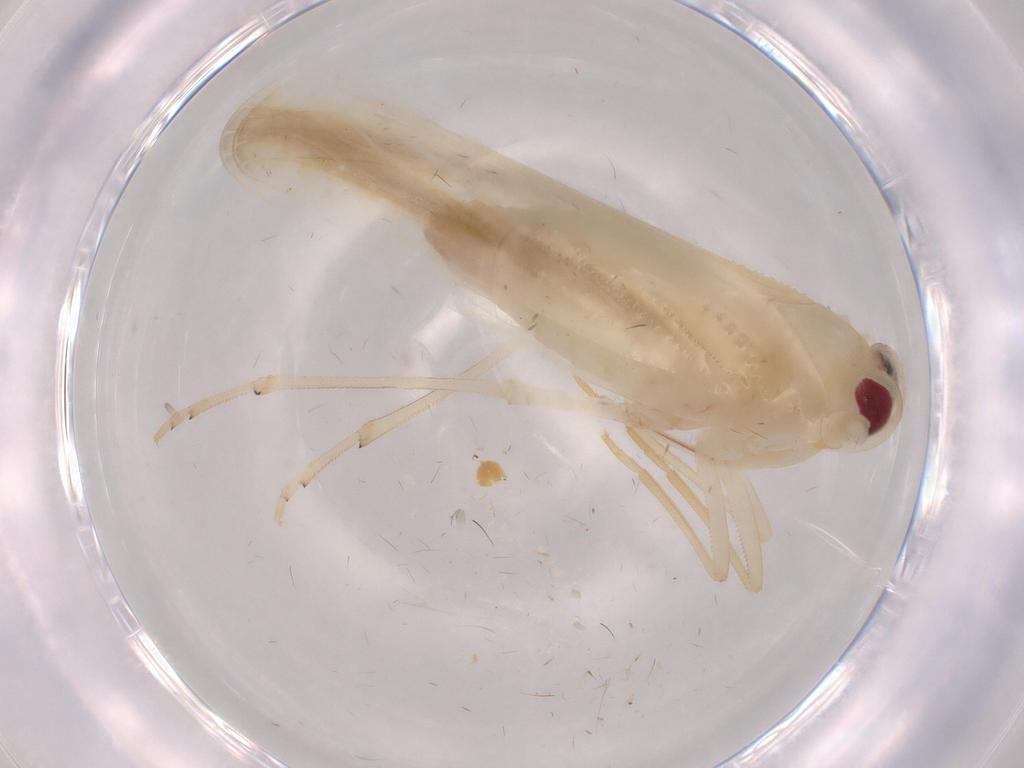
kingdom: Animalia
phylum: Arthropoda
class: Insecta
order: Hemiptera
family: Derbidae
